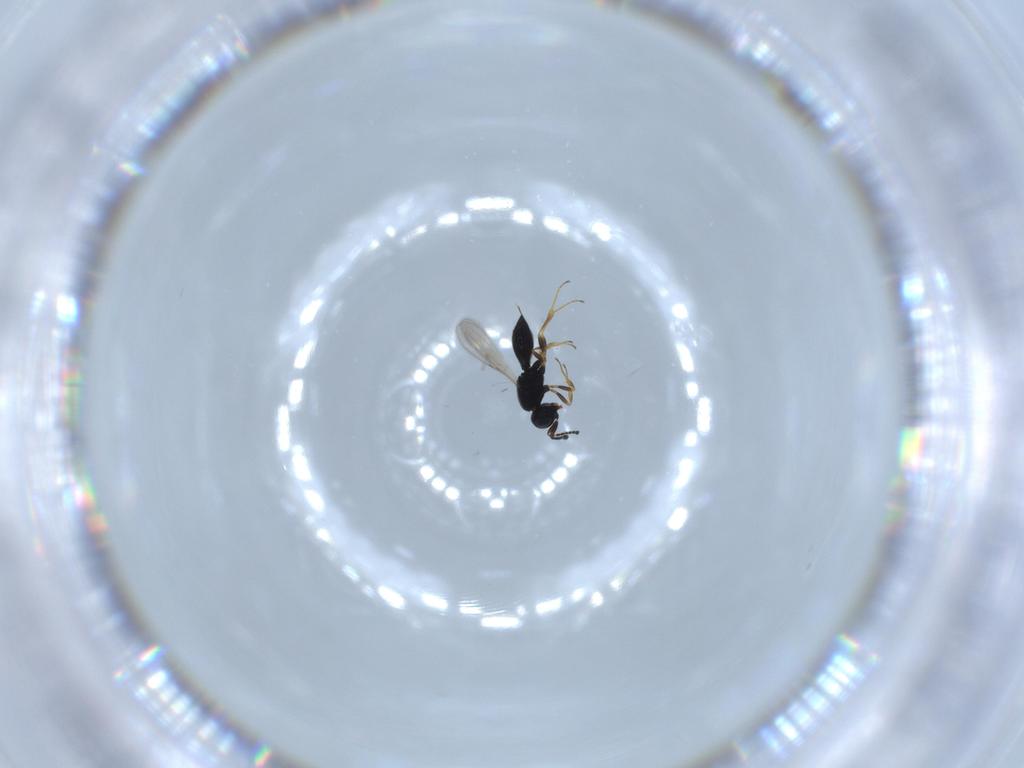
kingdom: Animalia
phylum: Arthropoda
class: Insecta
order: Hymenoptera
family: Scelionidae
